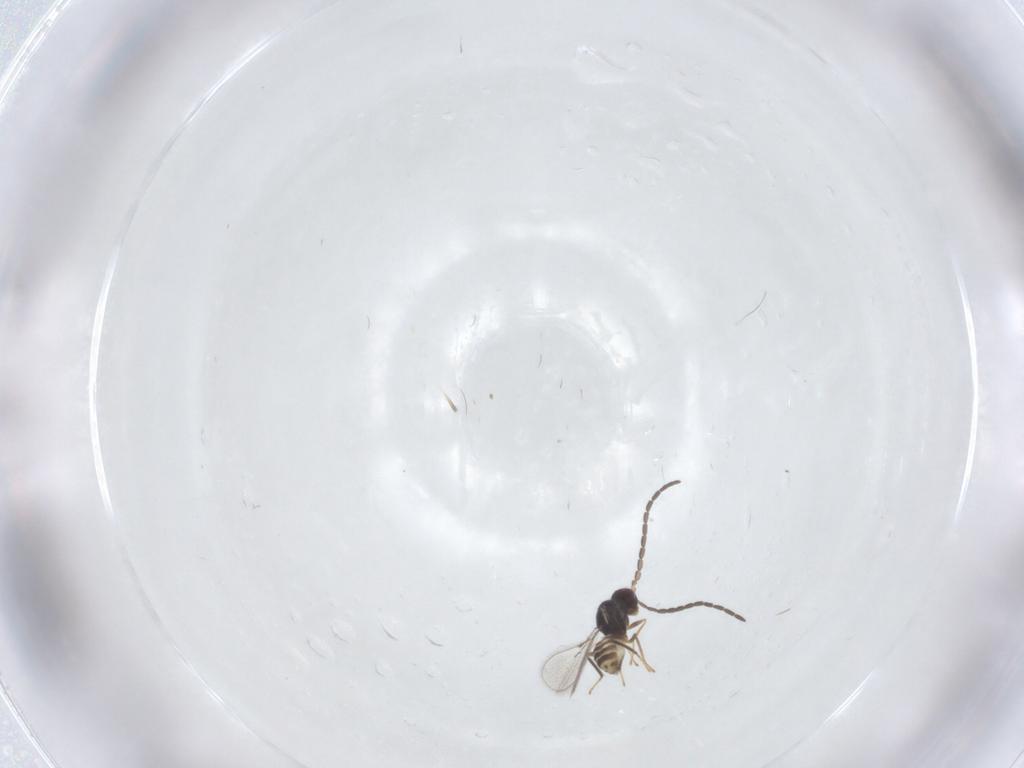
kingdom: Animalia
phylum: Arthropoda
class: Insecta
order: Hymenoptera
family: Mymaridae
